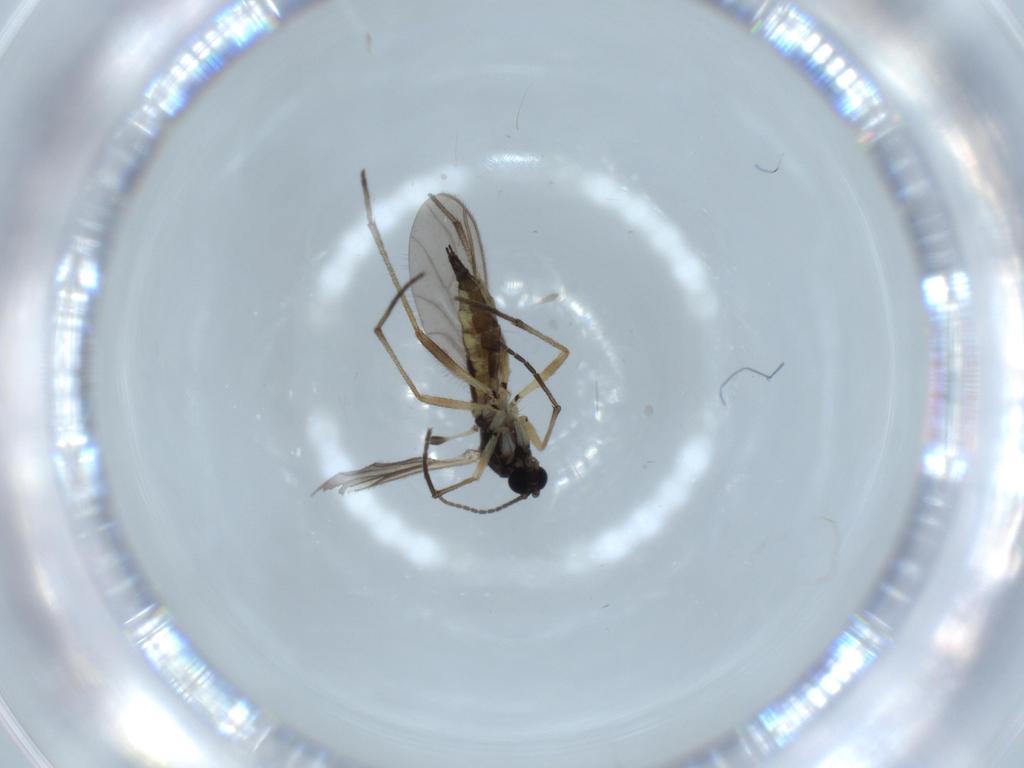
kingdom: Animalia
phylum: Arthropoda
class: Insecta
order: Diptera
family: Sciaridae
